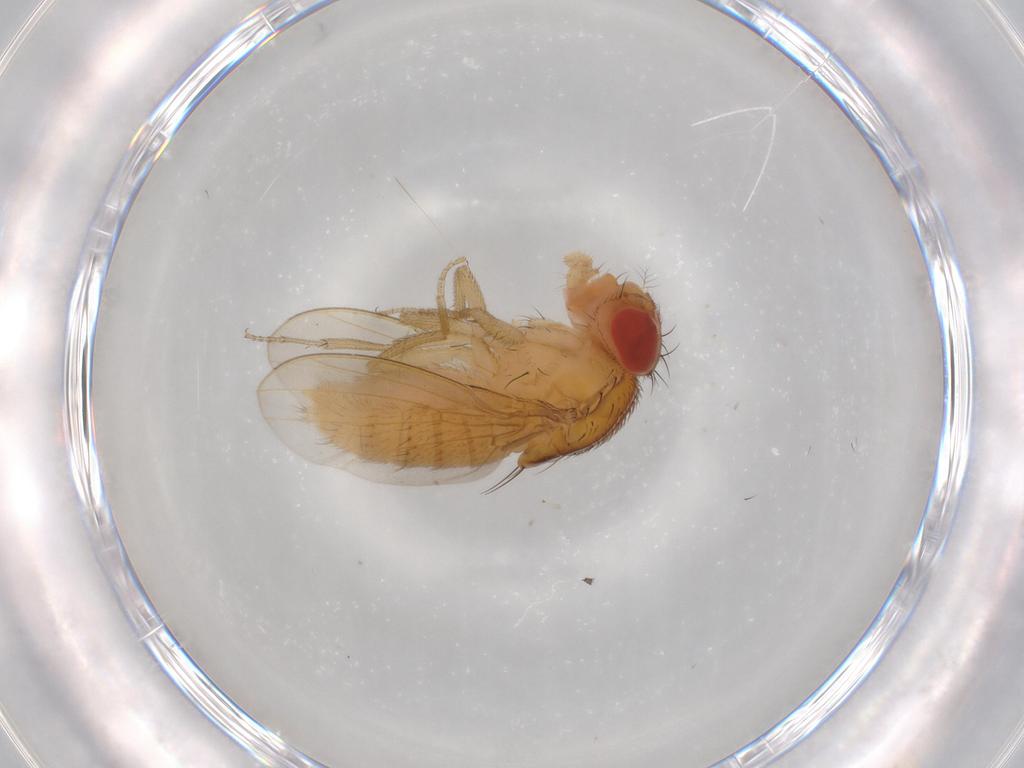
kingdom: Animalia
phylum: Arthropoda
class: Insecta
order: Diptera
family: Drosophilidae
